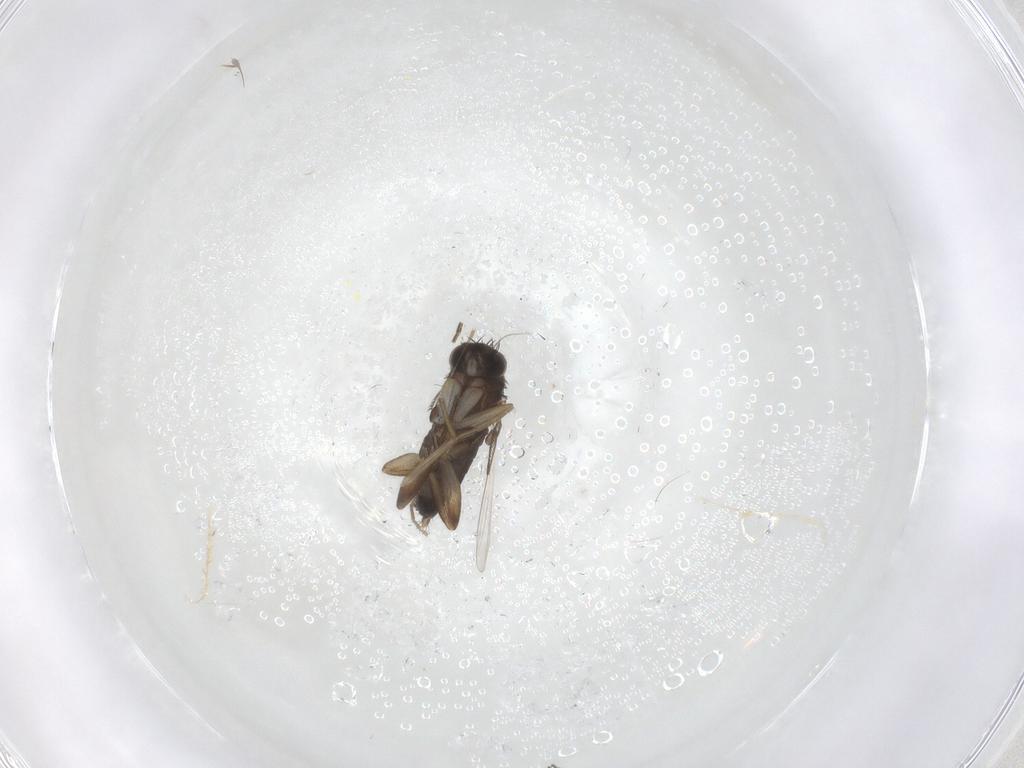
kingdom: Animalia
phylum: Arthropoda
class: Insecta
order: Diptera
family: Phoridae
